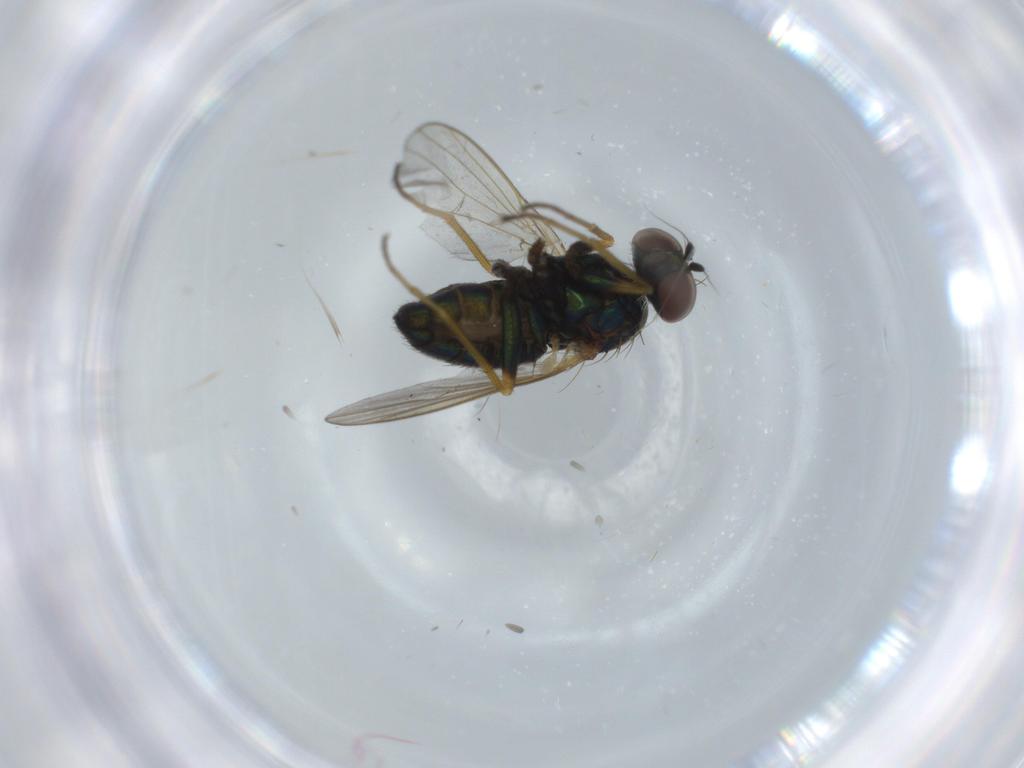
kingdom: Animalia
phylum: Arthropoda
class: Insecta
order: Diptera
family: Dolichopodidae
